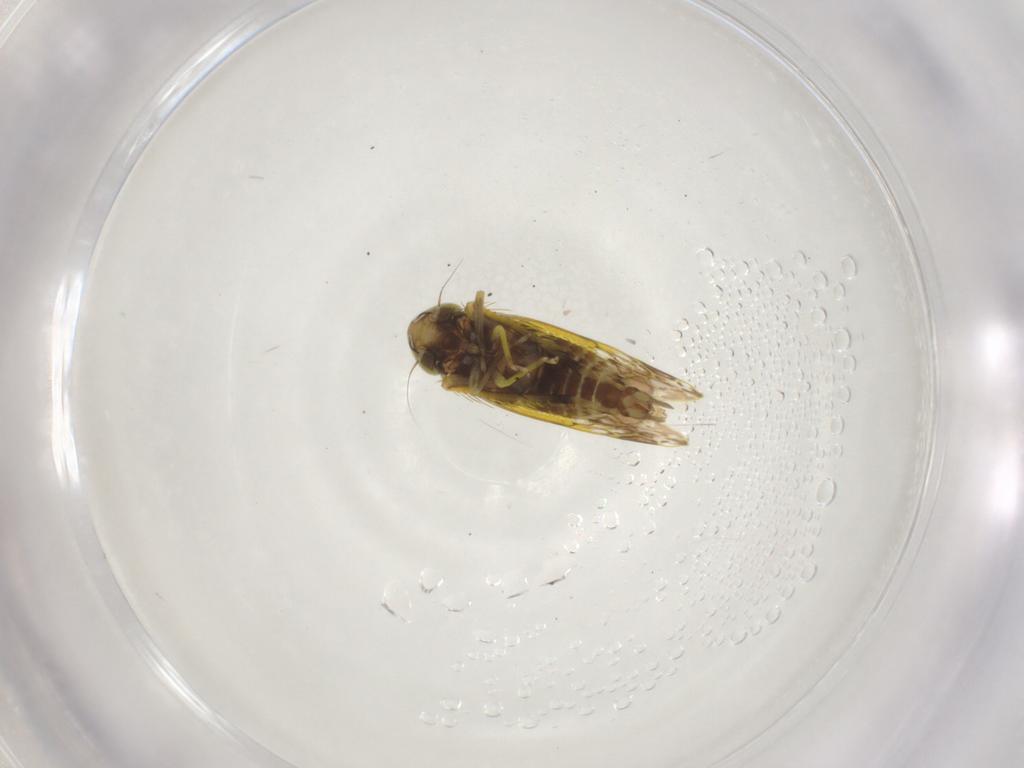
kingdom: Animalia
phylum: Arthropoda
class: Insecta
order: Hemiptera
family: Cicadellidae
